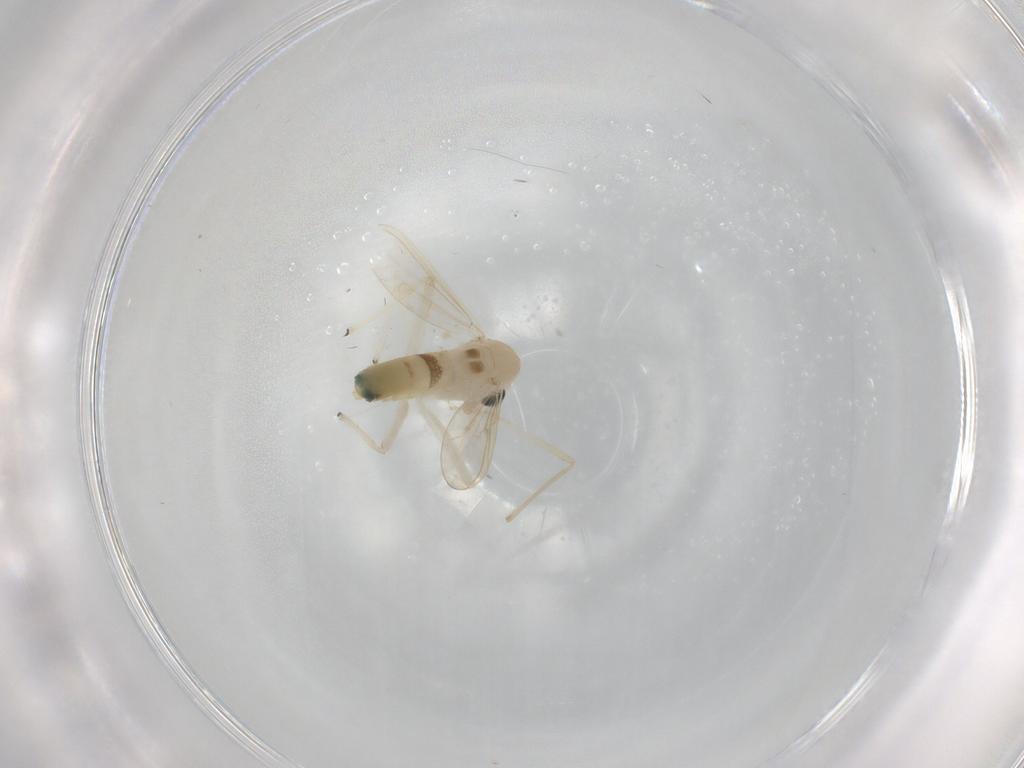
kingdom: Animalia
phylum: Arthropoda
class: Insecta
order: Diptera
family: Chironomidae
